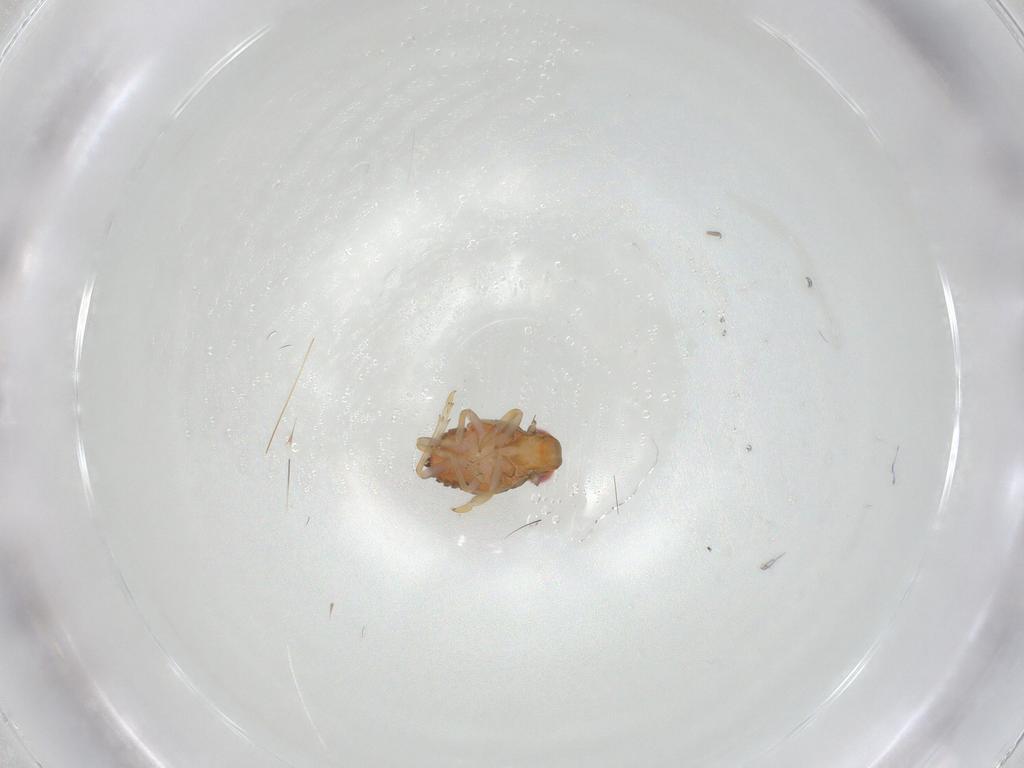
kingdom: Animalia
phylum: Arthropoda
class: Insecta
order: Hemiptera
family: Issidae
